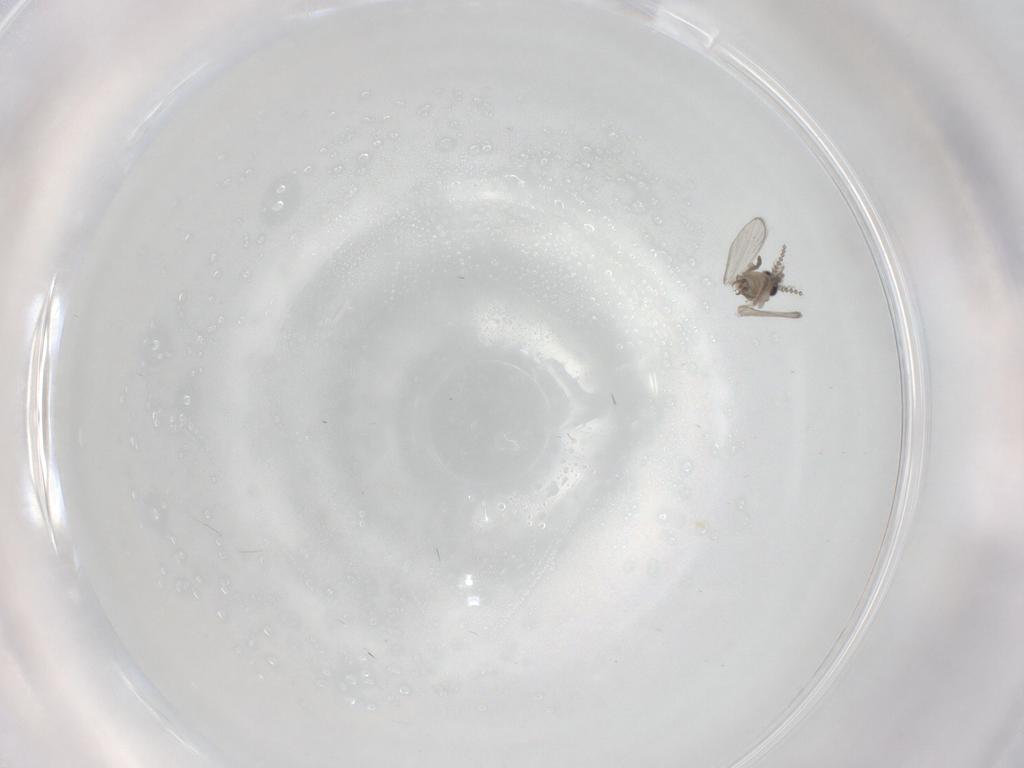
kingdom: Animalia
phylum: Arthropoda
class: Insecta
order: Diptera
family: Psychodidae
